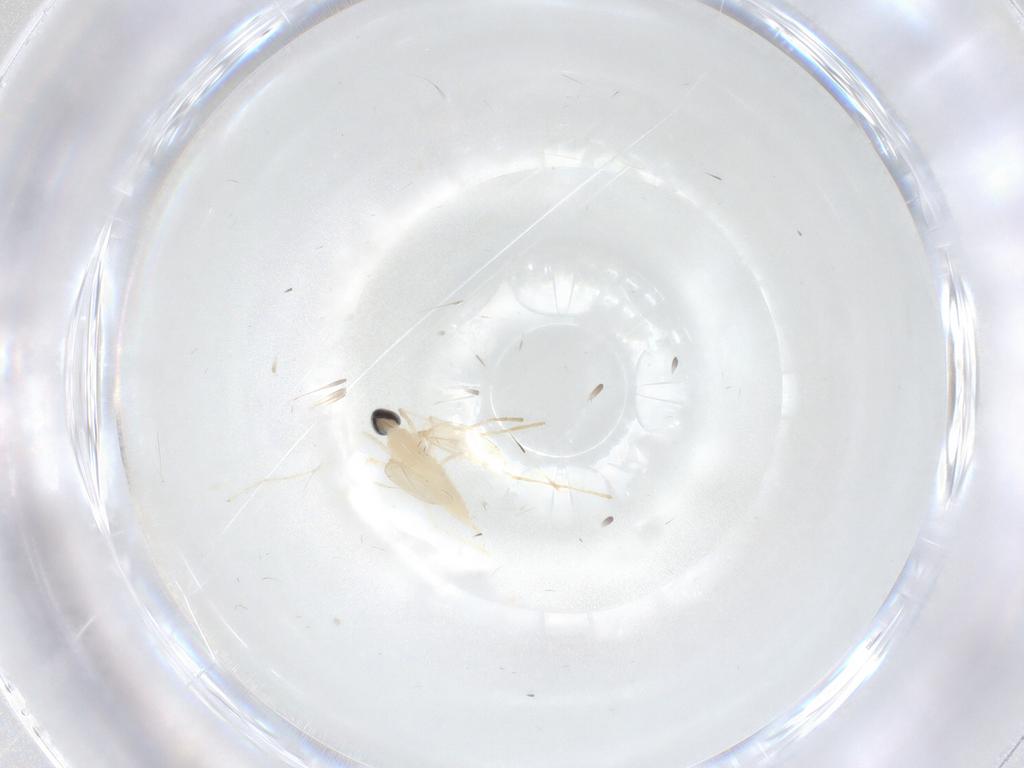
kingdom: Animalia
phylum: Arthropoda
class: Insecta
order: Diptera
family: Cecidomyiidae
